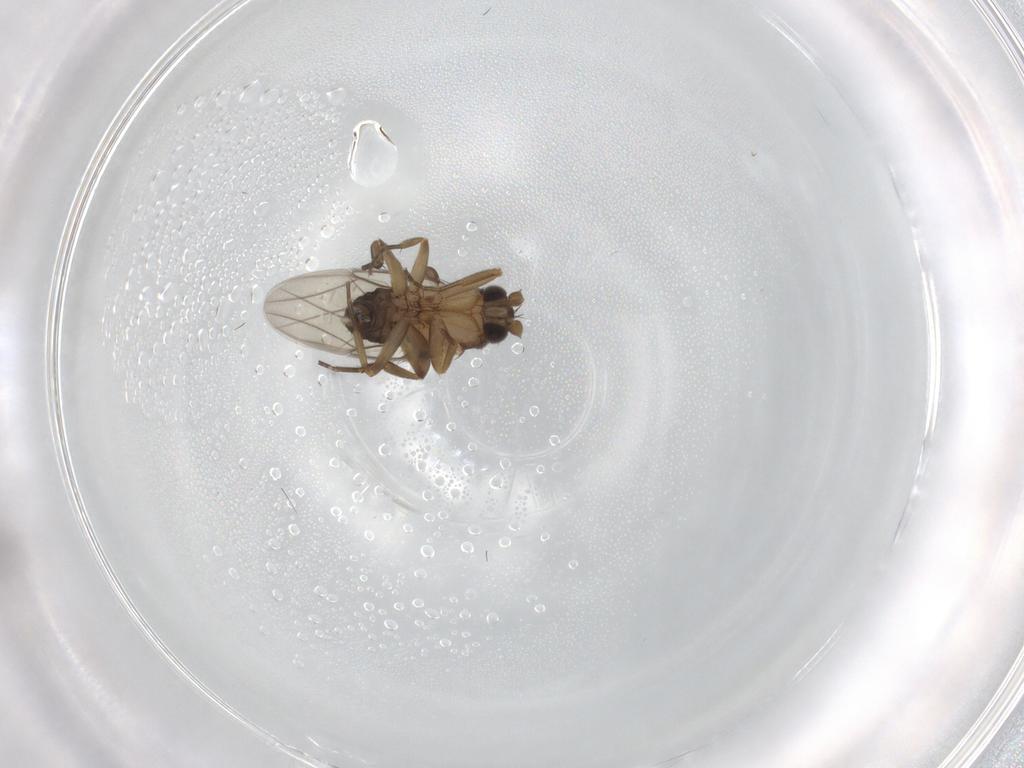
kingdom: Animalia
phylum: Arthropoda
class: Insecta
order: Diptera
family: Phoridae
